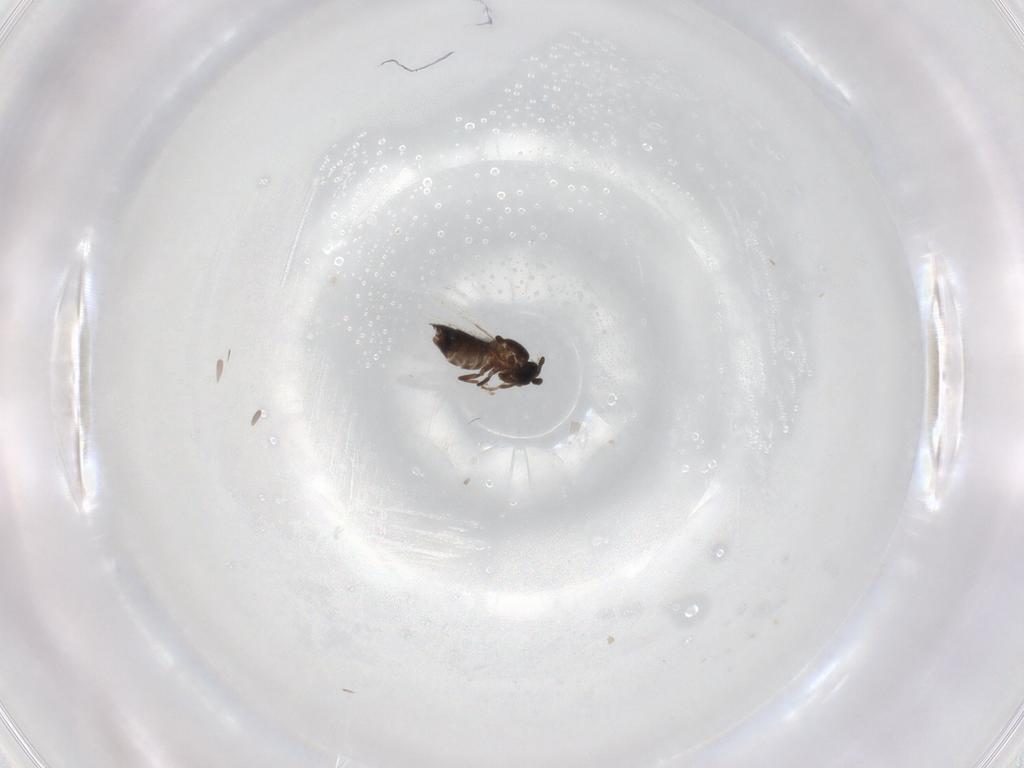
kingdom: Animalia
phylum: Arthropoda
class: Insecta
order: Diptera
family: Scatopsidae
